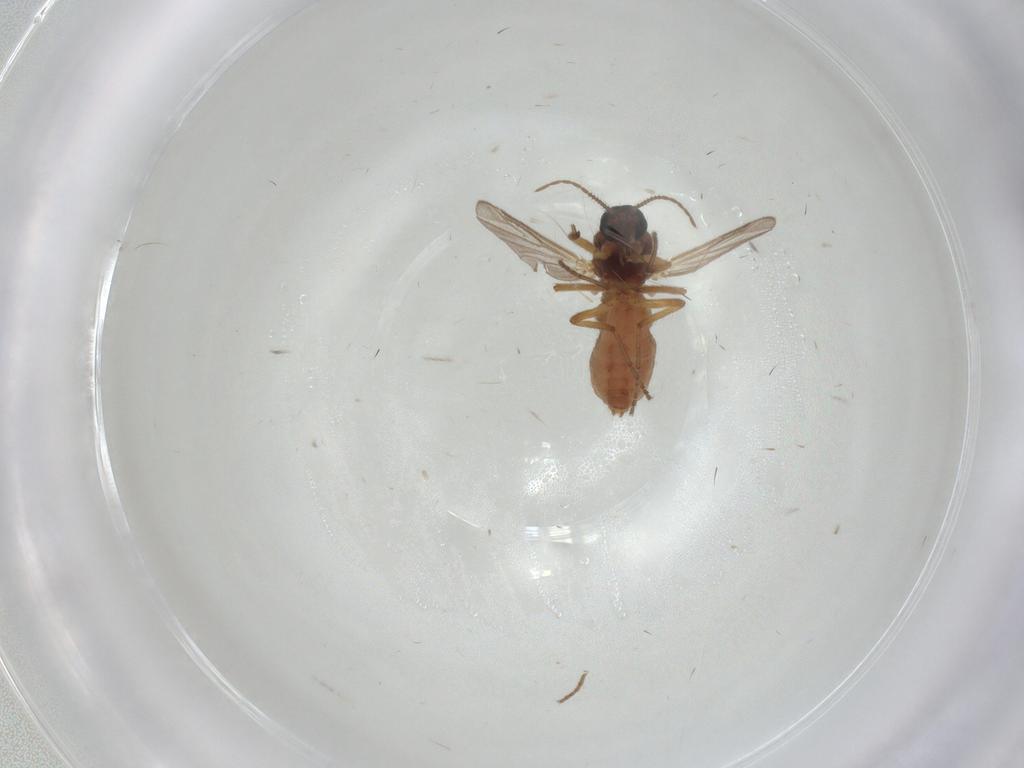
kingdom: Animalia
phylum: Arthropoda
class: Insecta
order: Diptera
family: Ceratopogonidae
